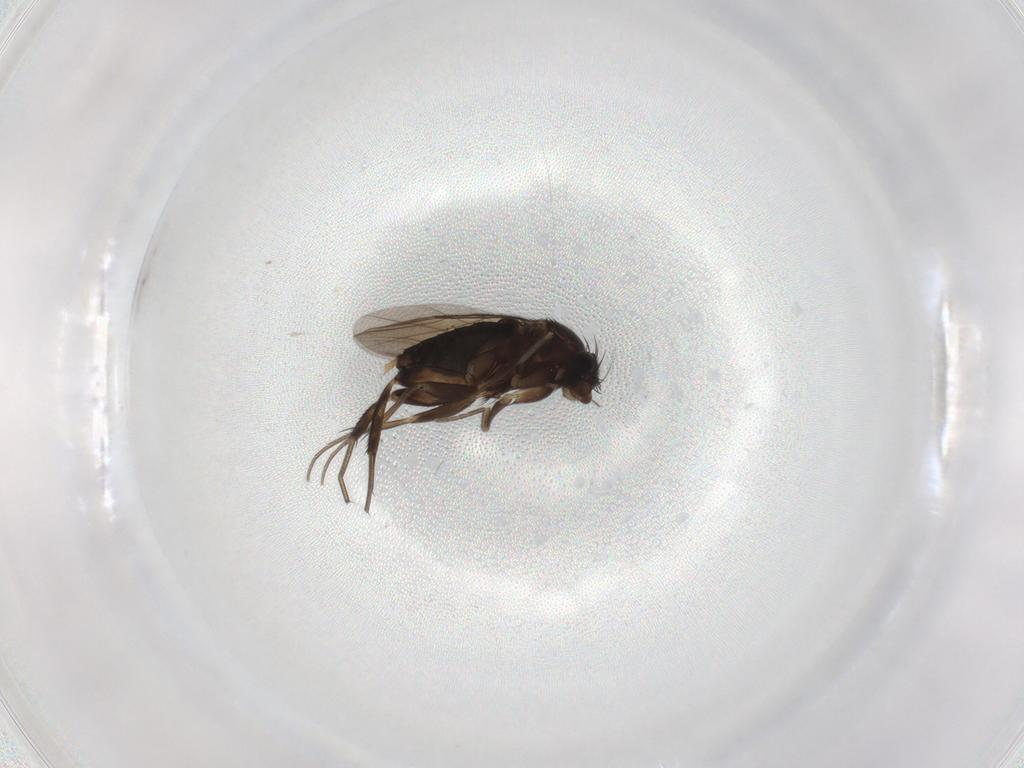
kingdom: Animalia
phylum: Arthropoda
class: Insecta
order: Diptera
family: Phoridae
